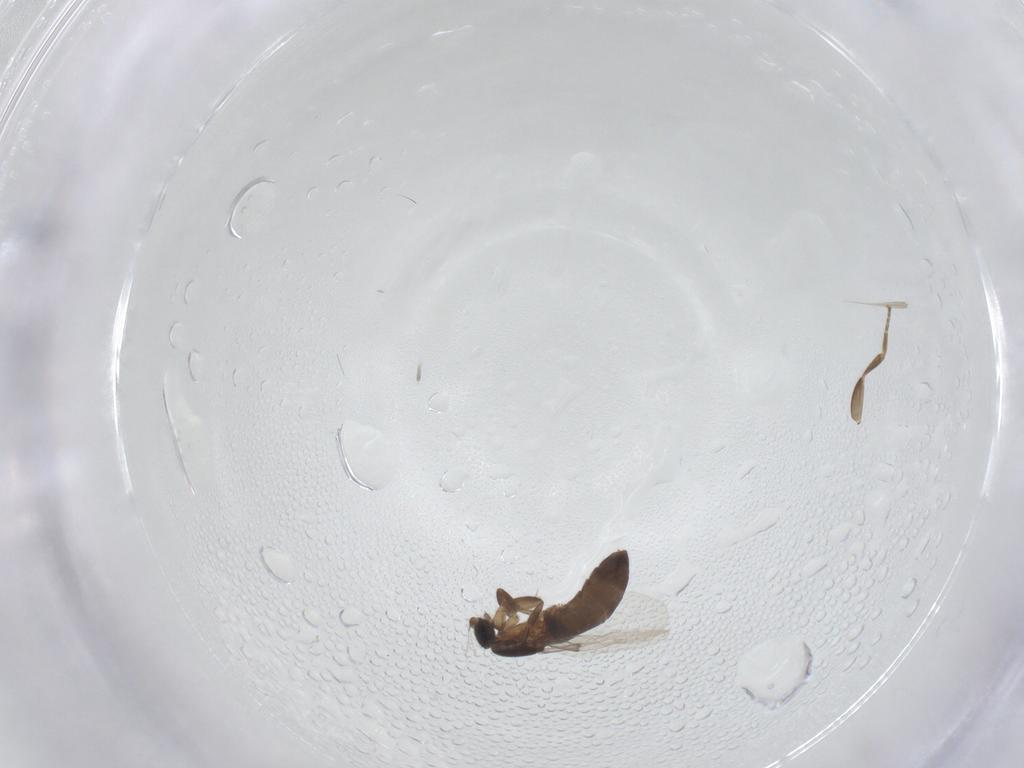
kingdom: Animalia
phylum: Arthropoda
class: Insecta
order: Diptera
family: Phoridae
